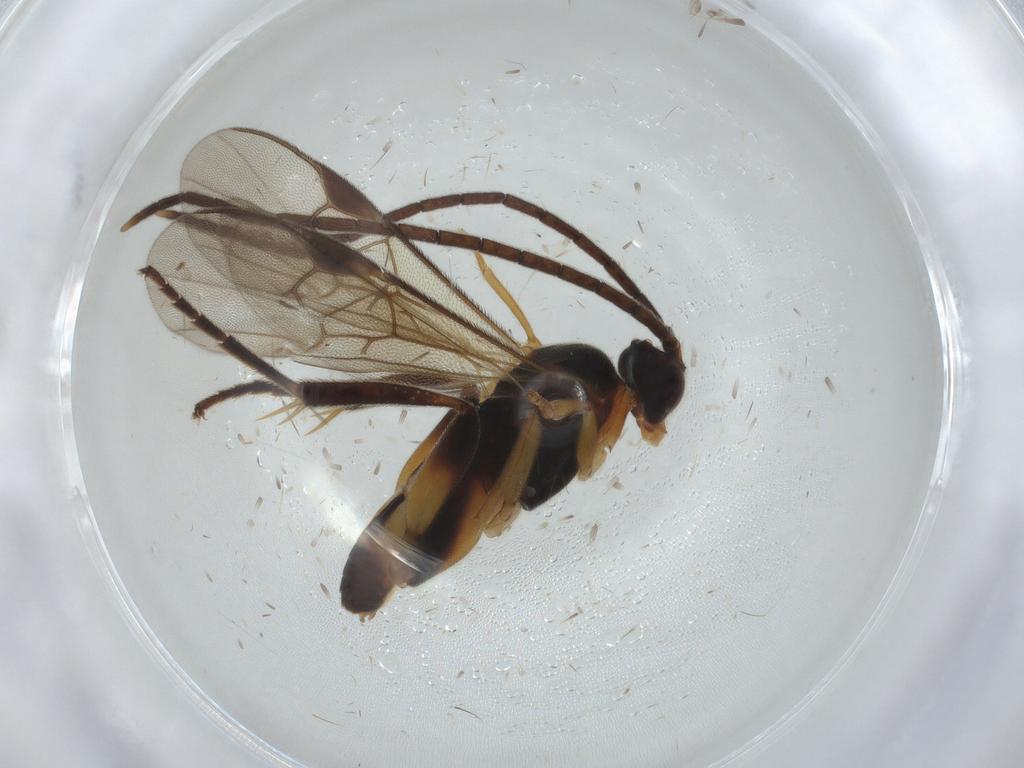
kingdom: Animalia
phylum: Arthropoda
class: Insecta
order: Hymenoptera
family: Braconidae
